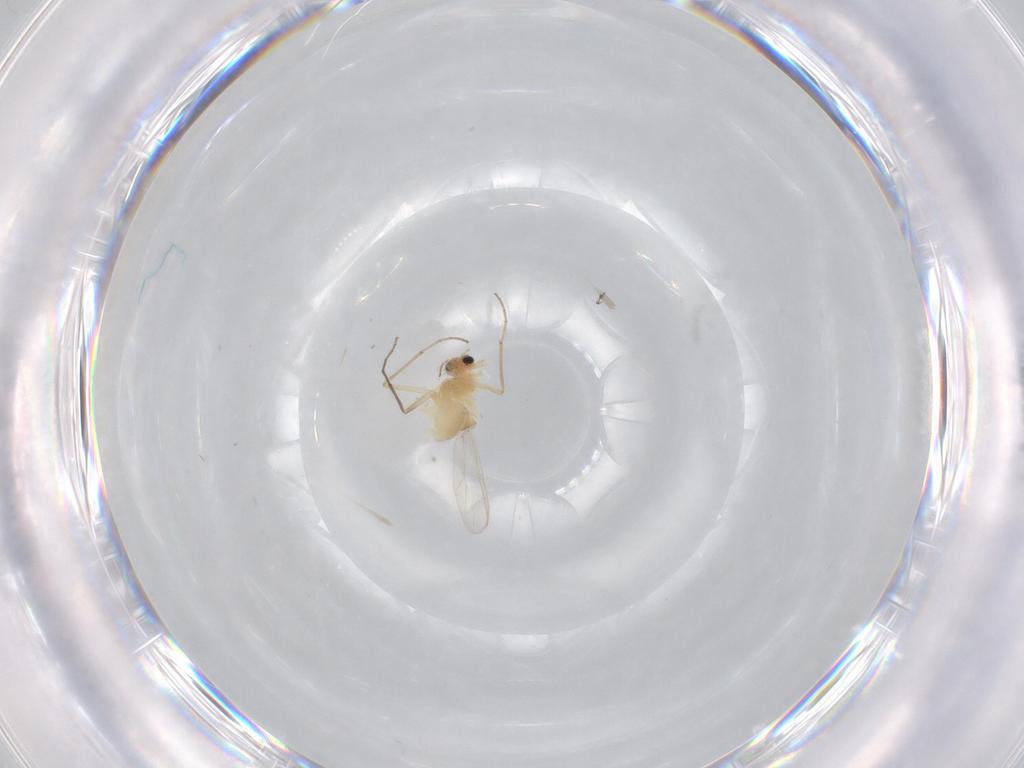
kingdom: Animalia
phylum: Arthropoda
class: Insecta
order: Diptera
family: Chironomidae
